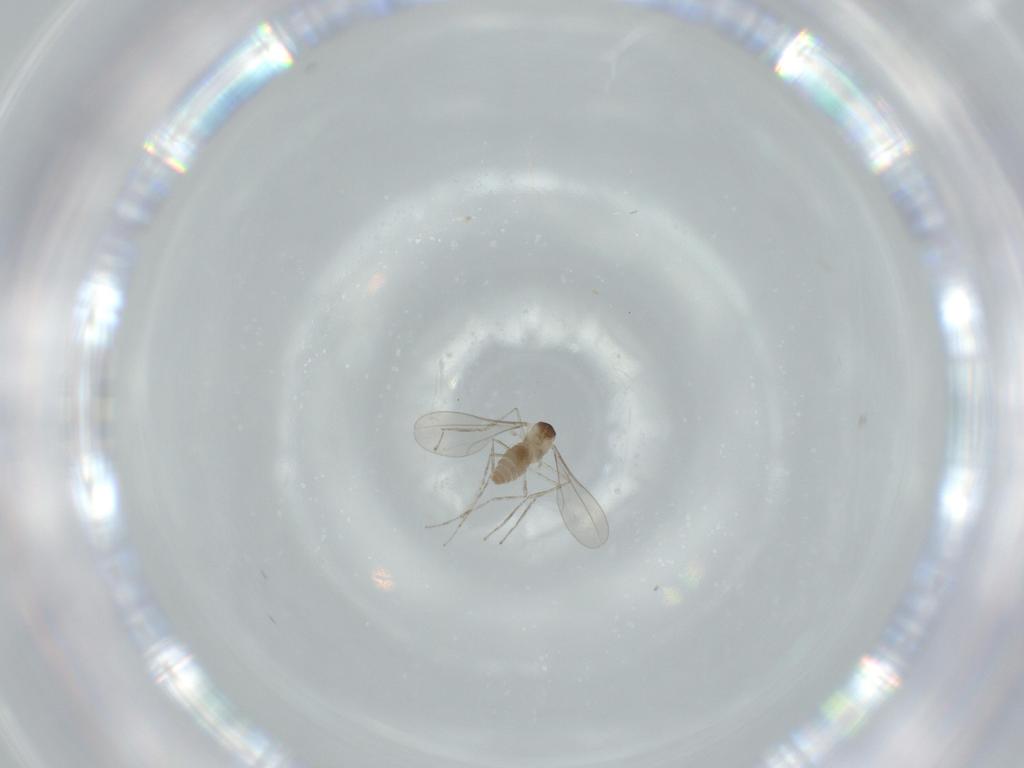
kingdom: Animalia
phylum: Arthropoda
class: Insecta
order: Diptera
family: Cecidomyiidae
